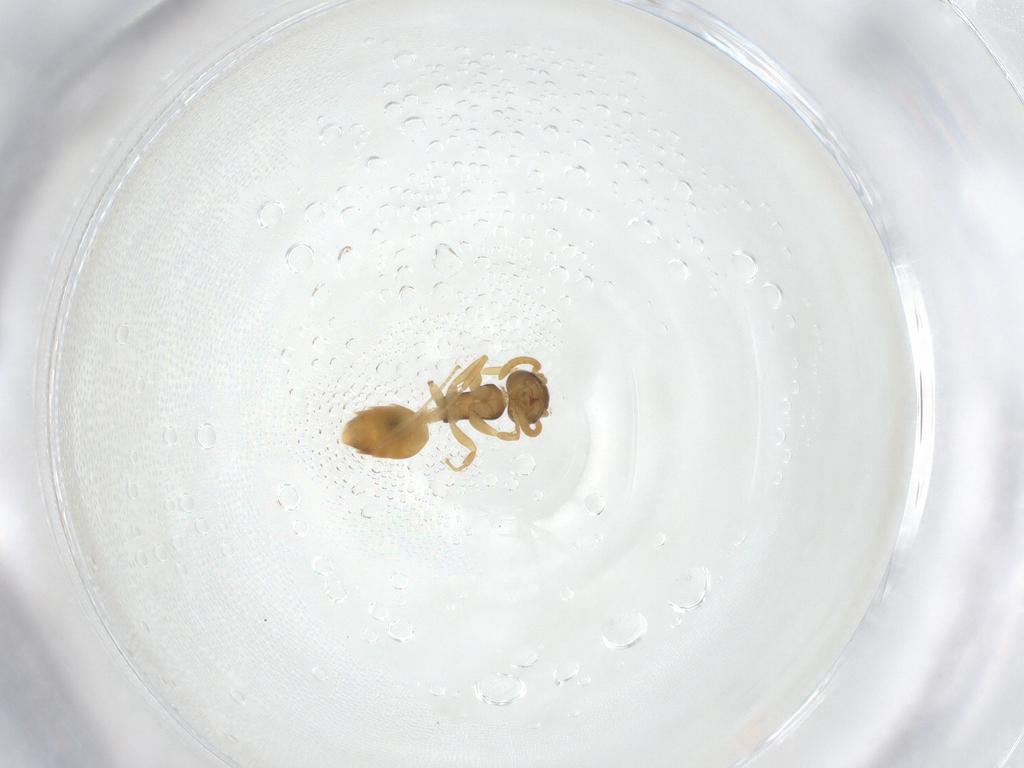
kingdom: Animalia
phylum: Arthropoda
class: Insecta
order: Hymenoptera
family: Formicidae
